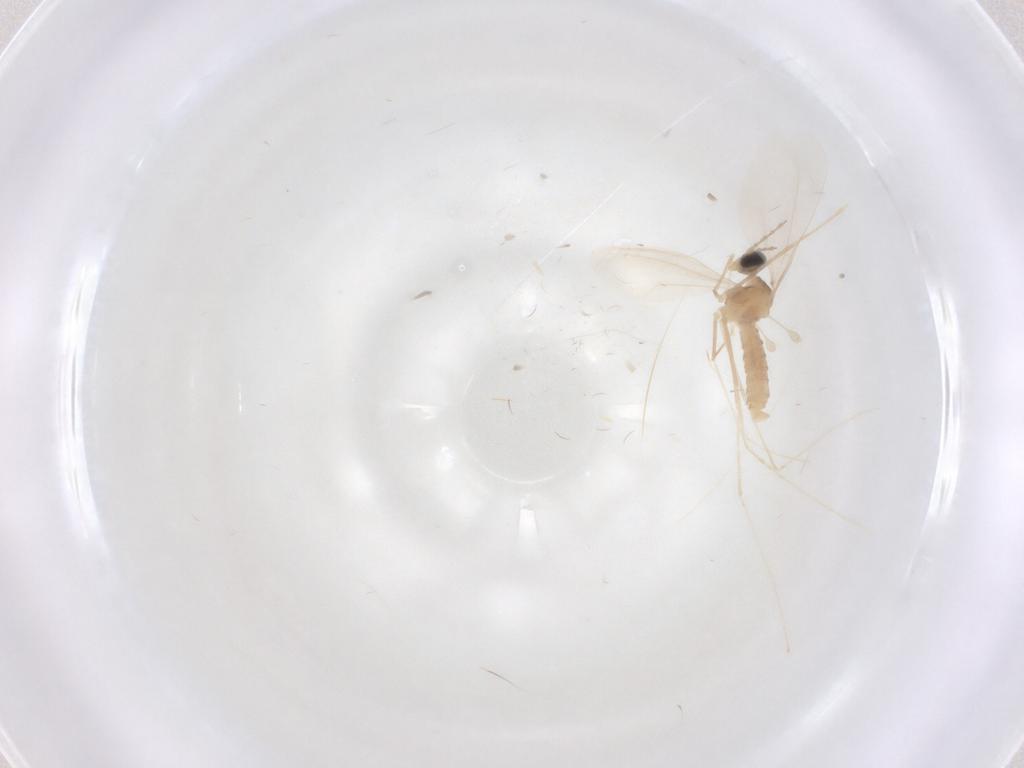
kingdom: Animalia
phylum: Arthropoda
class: Insecta
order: Diptera
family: Cecidomyiidae
